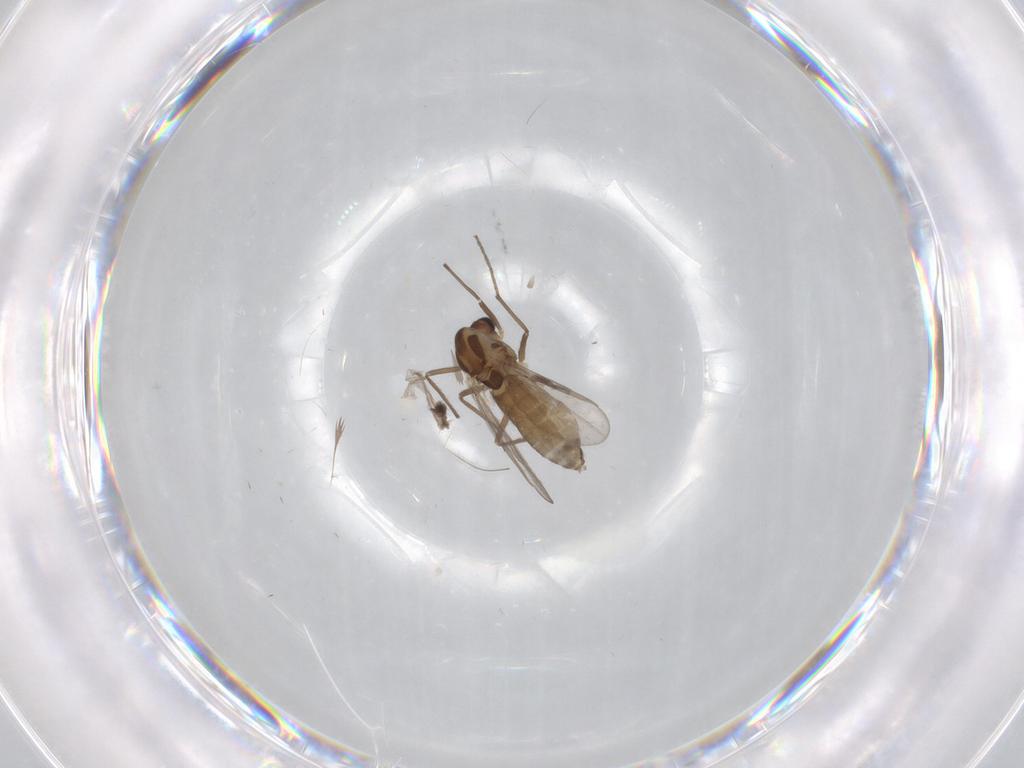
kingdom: Animalia
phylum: Arthropoda
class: Insecta
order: Diptera
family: Chironomidae
